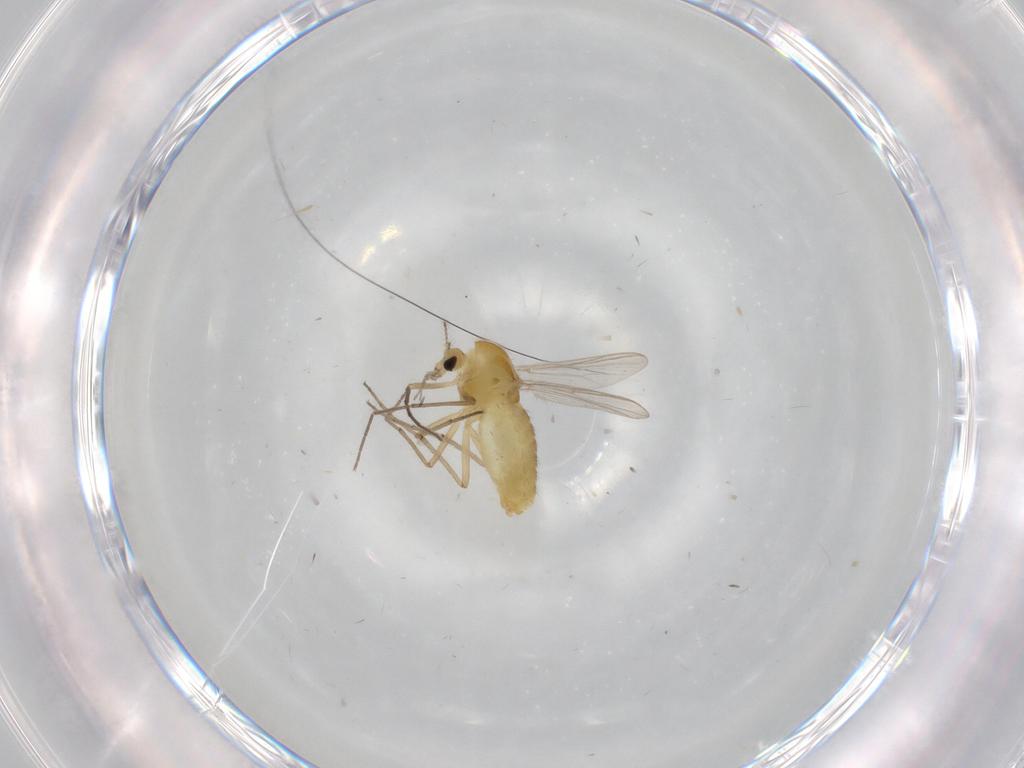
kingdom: Animalia
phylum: Arthropoda
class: Insecta
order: Diptera
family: Chironomidae
